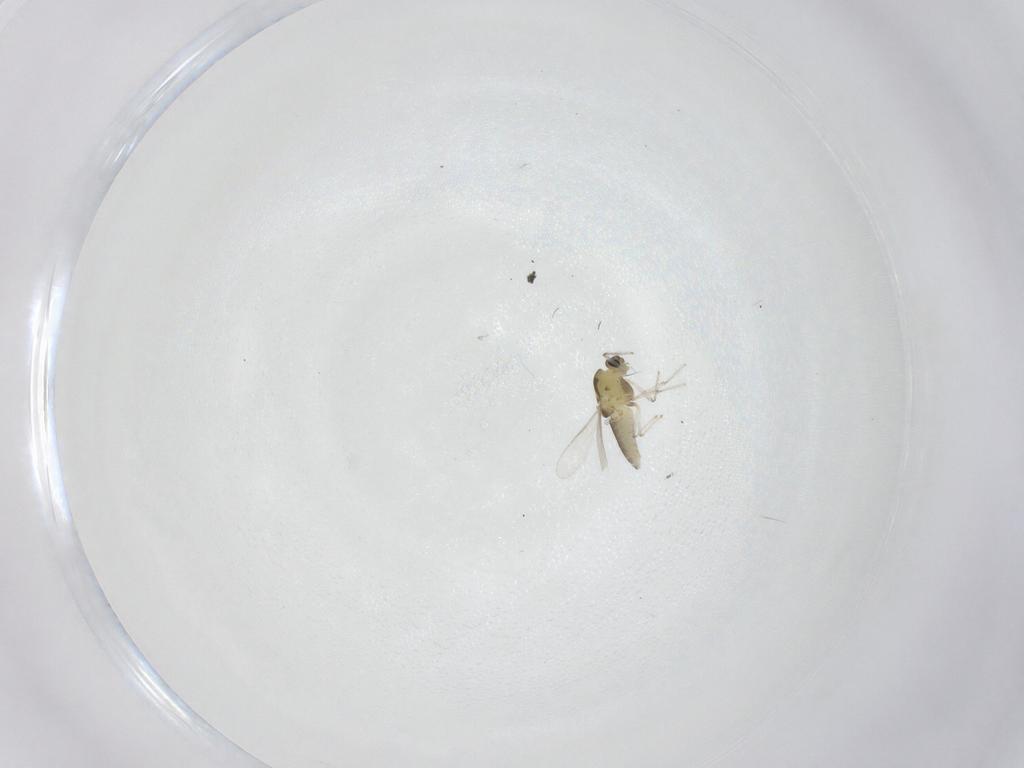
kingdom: Animalia
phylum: Arthropoda
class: Insecta
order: Diptera
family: Chironomidae
